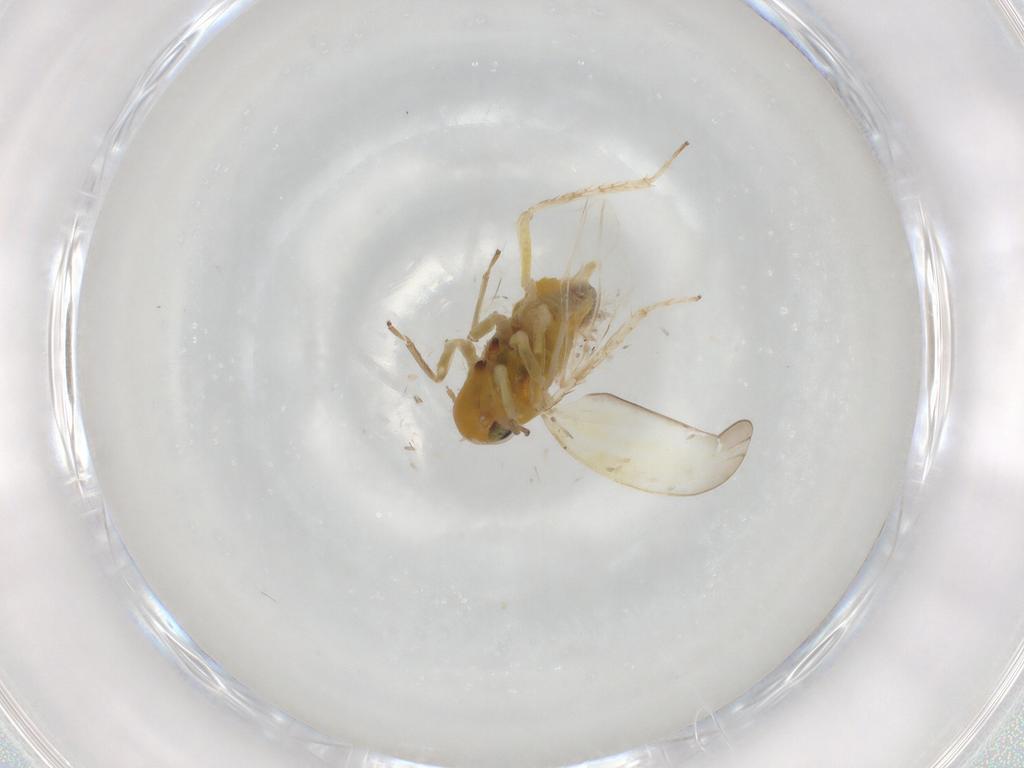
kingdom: Animalia
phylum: Arthropoda
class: Insecta
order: Hemiptera
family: Cicadellidae
